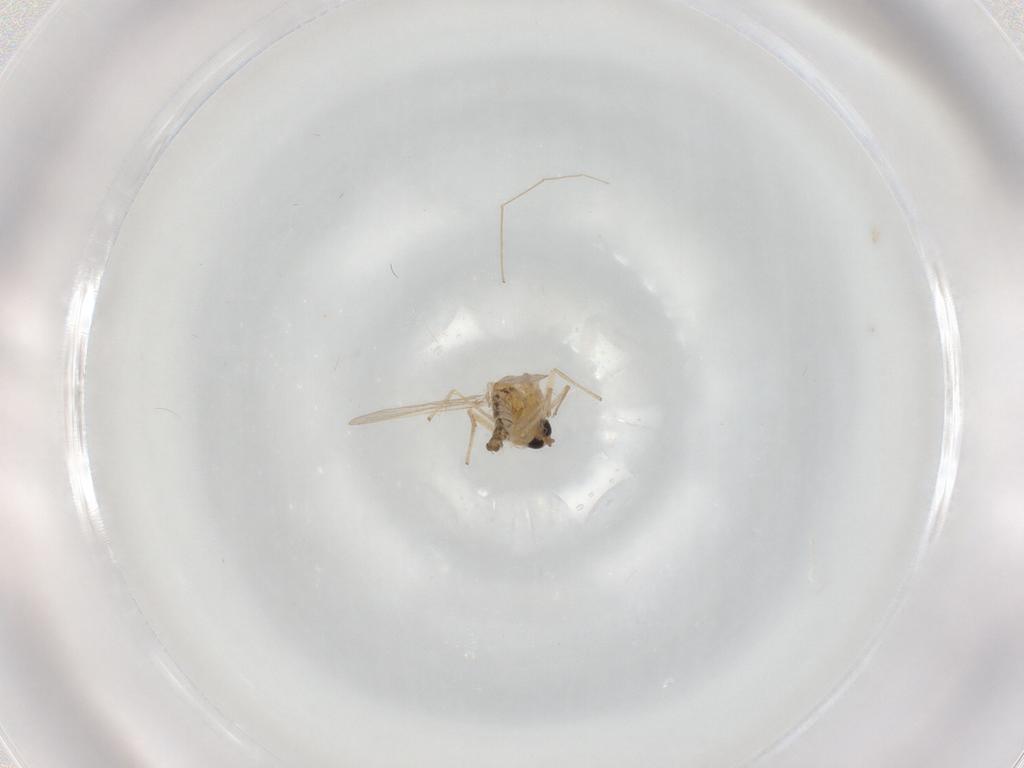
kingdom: Animalia
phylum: Arthropoda
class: Insecta
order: Diptera
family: Chironomidae
